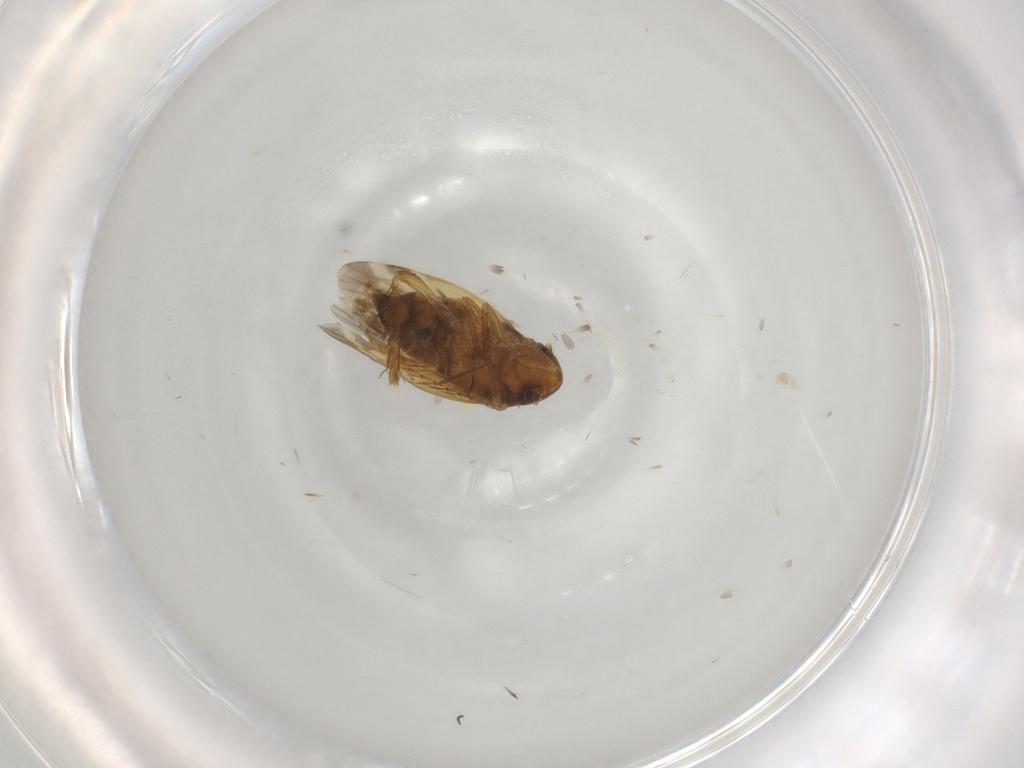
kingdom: Animalia
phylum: Arthropoda
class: Insecta
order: Hemiptera
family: Cicadellidae
